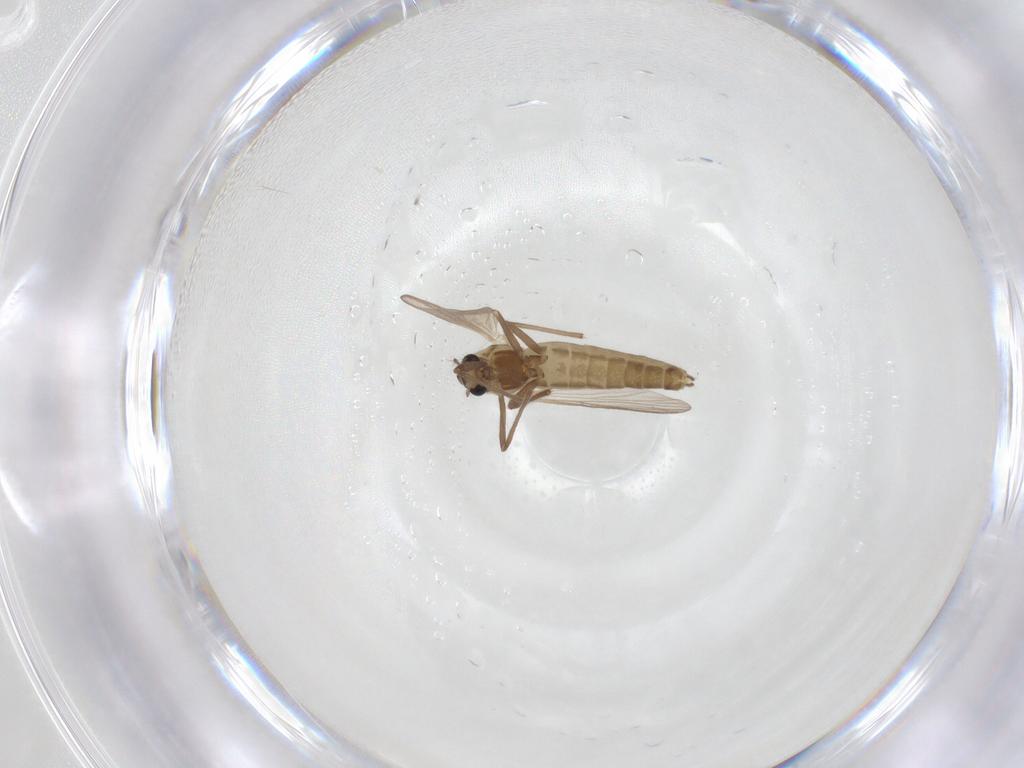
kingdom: Animalia
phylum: Arthropoda
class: Insecta
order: Diptera
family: Chironomidae
